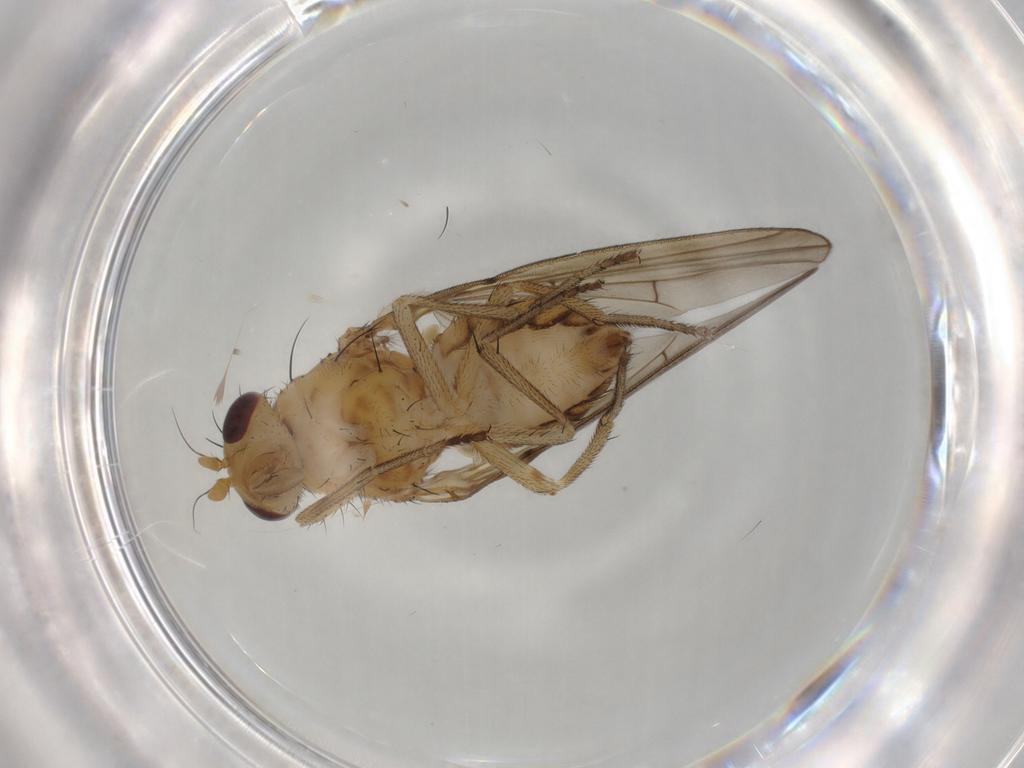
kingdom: Animalia
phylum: Arthropoda
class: Insecta
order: Diptera
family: Lauxaniidae
